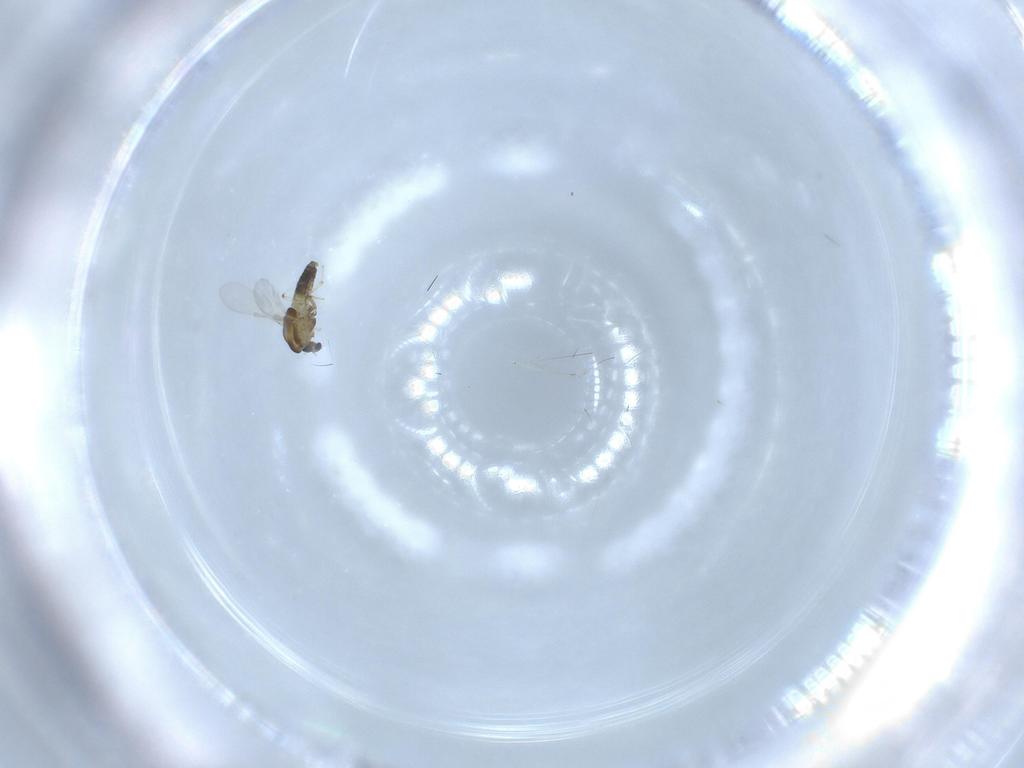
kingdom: Animalia
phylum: Arthropoda
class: Insecta
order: Diptera
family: Chironomidae
